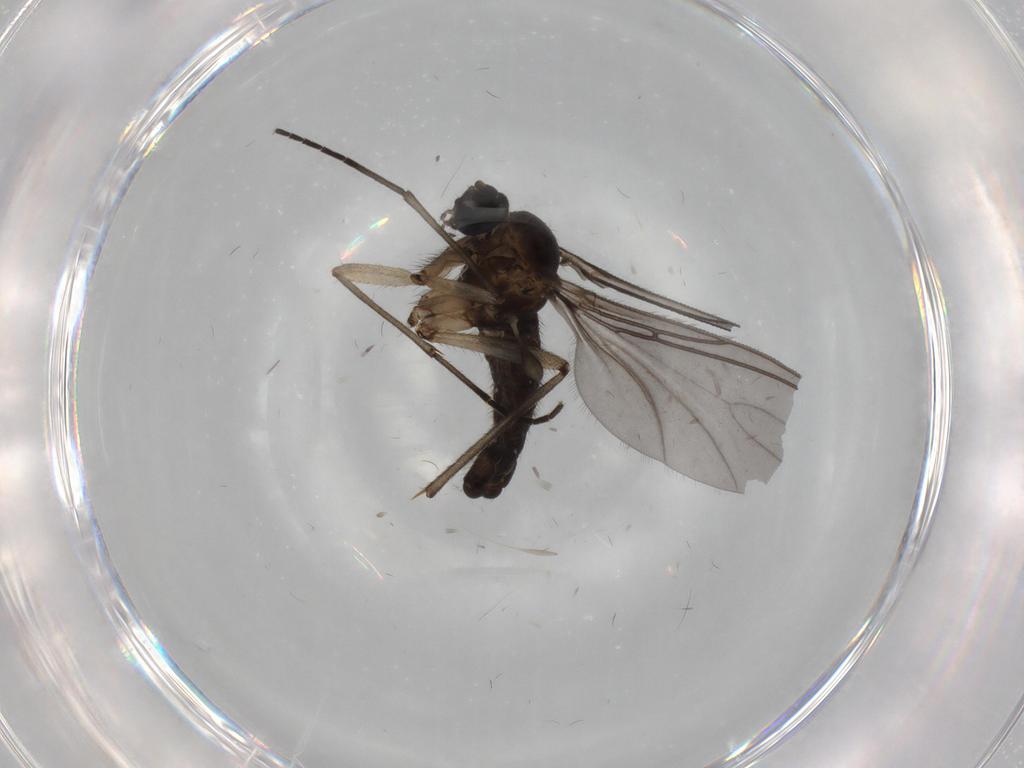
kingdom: Animalia
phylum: Arthropoda
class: Insecta
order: Diptera
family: Sciaridae
